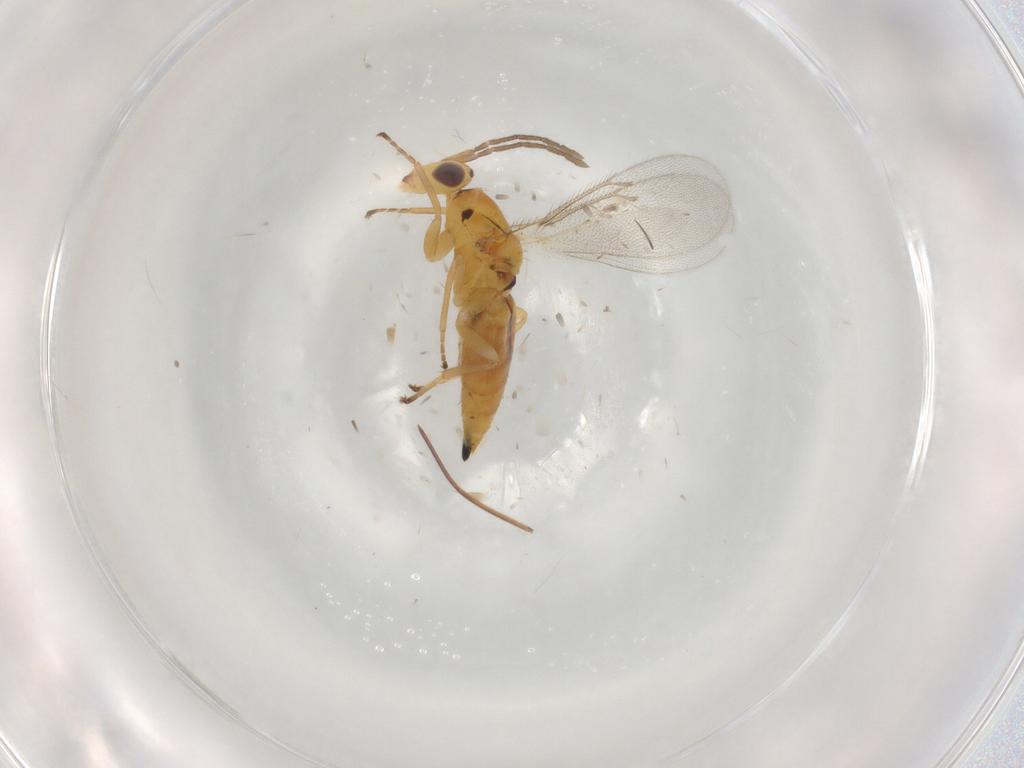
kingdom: Animalia
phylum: Arthropoda
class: Insecta
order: Hymenoptera
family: Eulophidae
